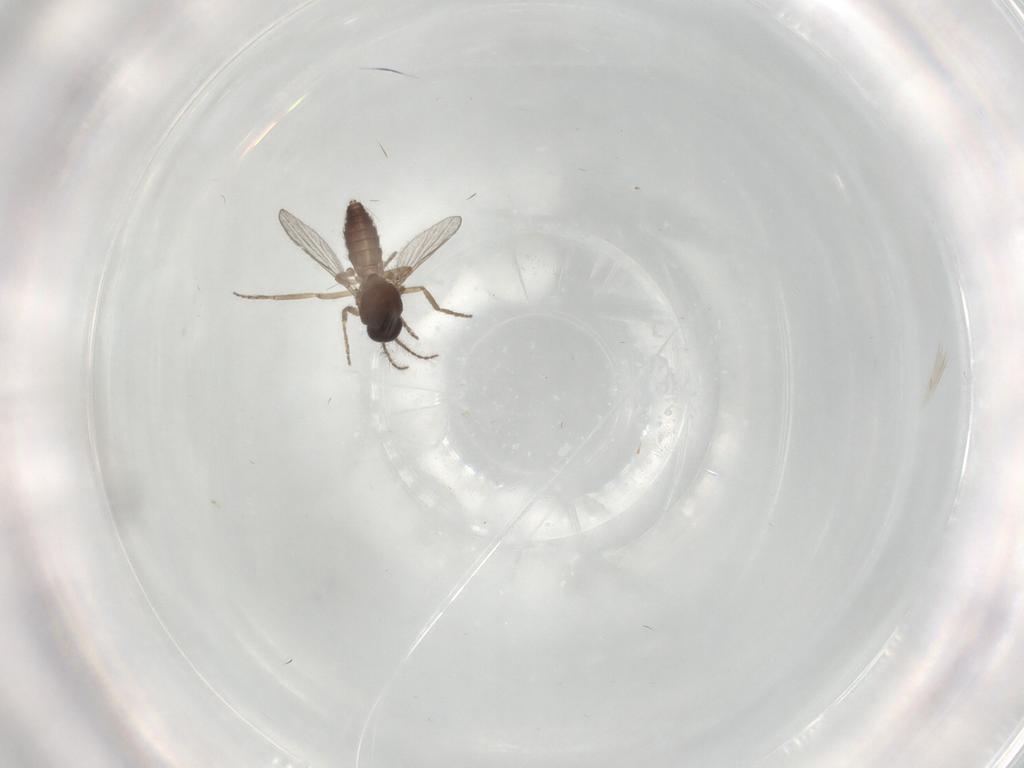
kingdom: Animalia
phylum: Arthropoda
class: Insecta
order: Diptera
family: Ceratopogonidae
